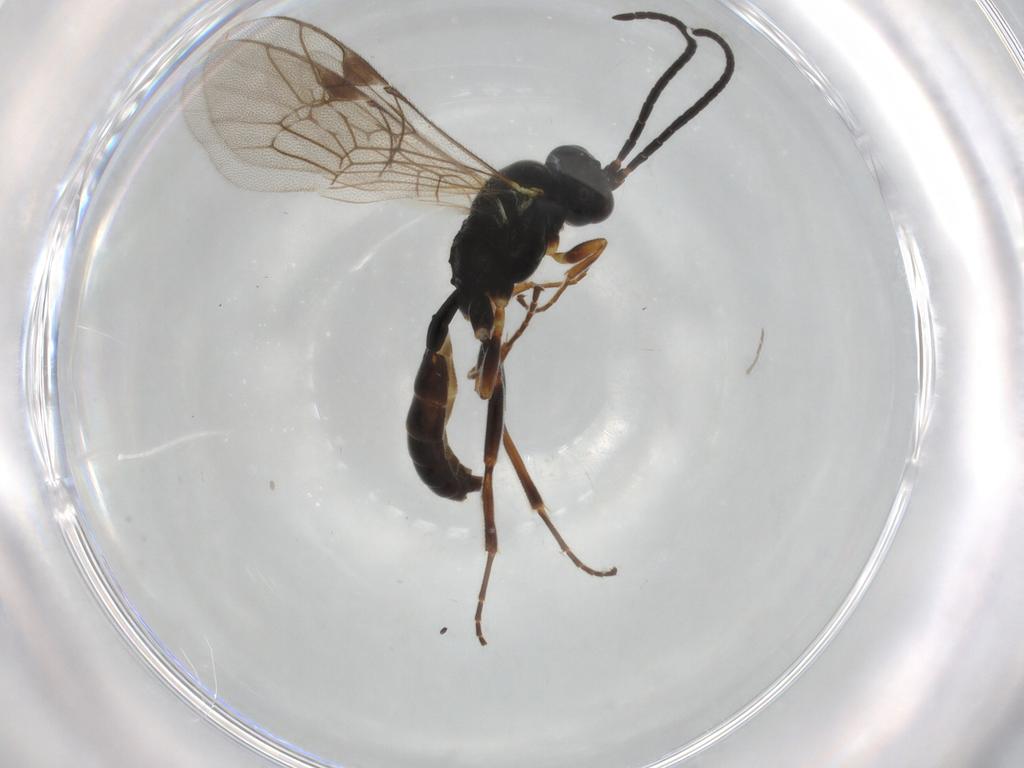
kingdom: Animalia
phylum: Arthropoda
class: Insecta
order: Hymenoptera
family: Ichneumonidae
